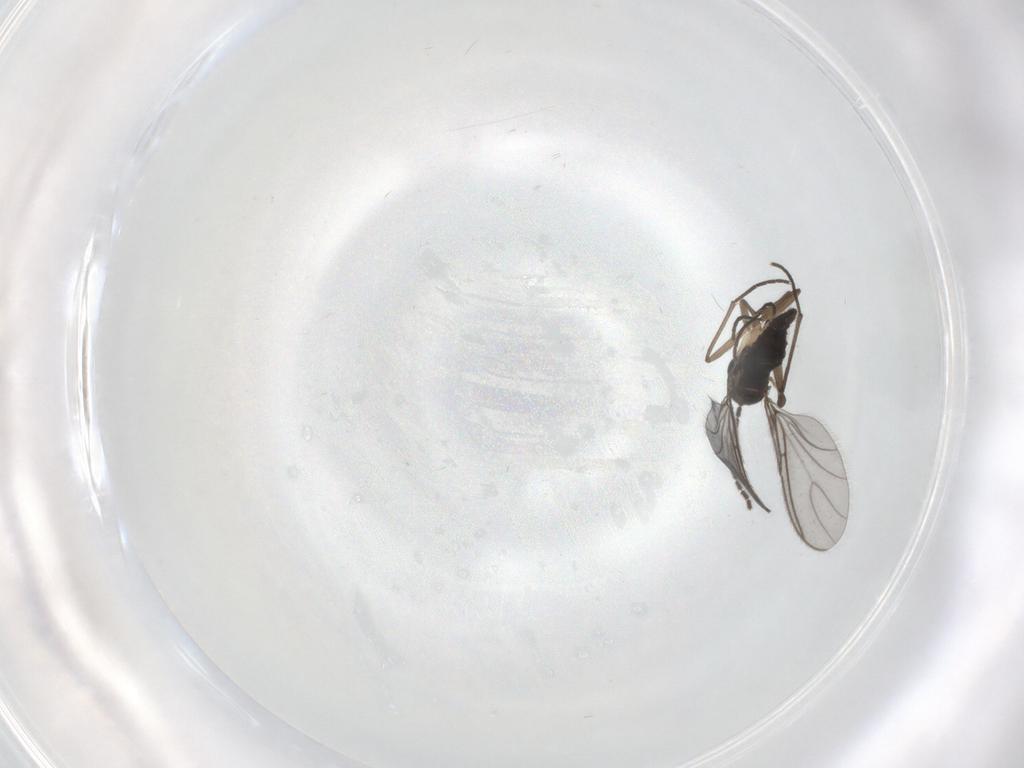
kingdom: Animalia
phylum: Arthropoda
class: Insecta
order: Diptera
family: Sciaridae
